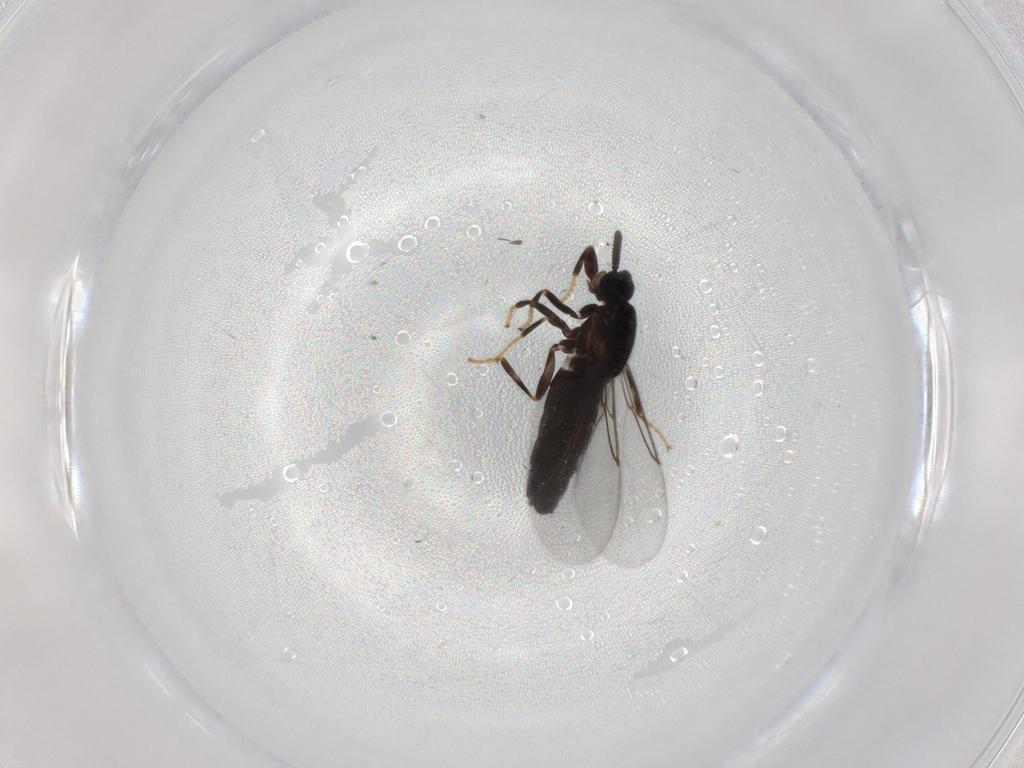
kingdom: Animalia
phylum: Arthropoda
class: Insecta
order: Diptera
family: Scatopsidae
